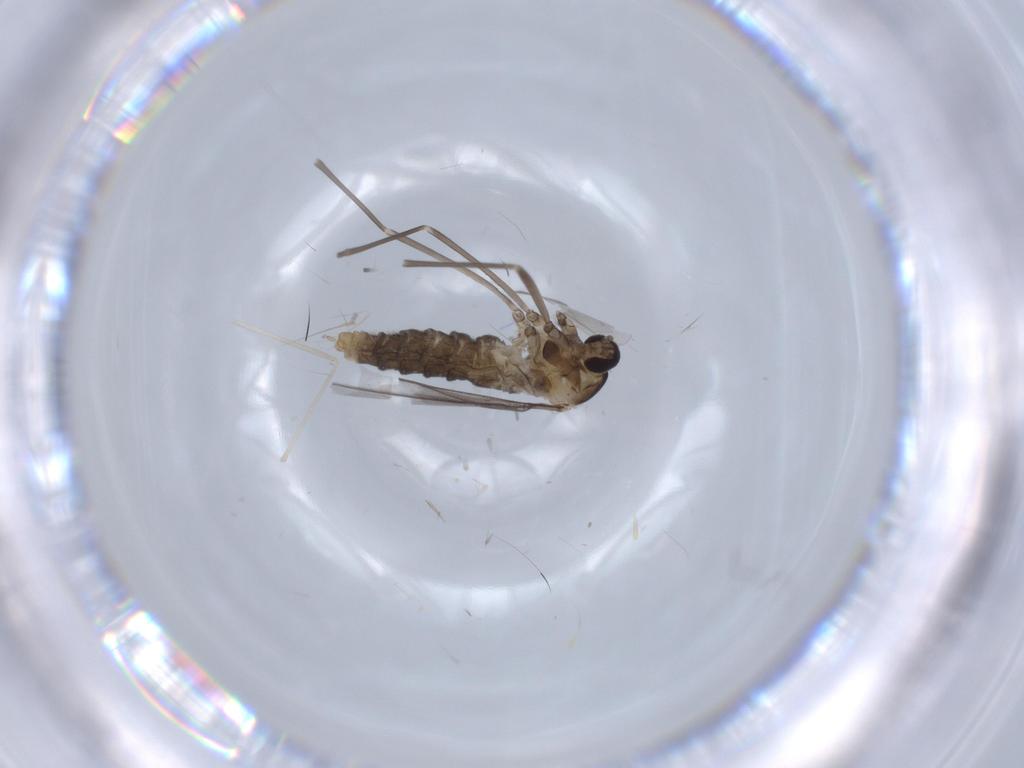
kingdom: Animalia
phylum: Arthropoda
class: Insecta
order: Diptera
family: Cecidomyiidae
